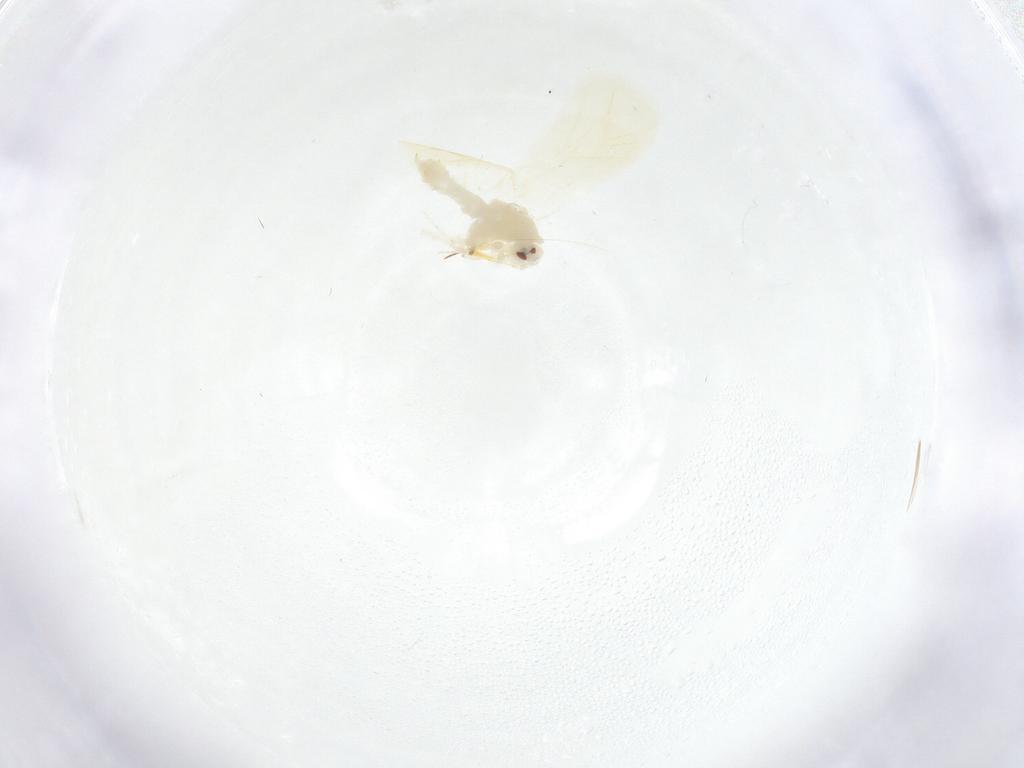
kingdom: Animalia
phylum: Arthropoda
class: Insecta
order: Hemiptera
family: Aleyrodidae
